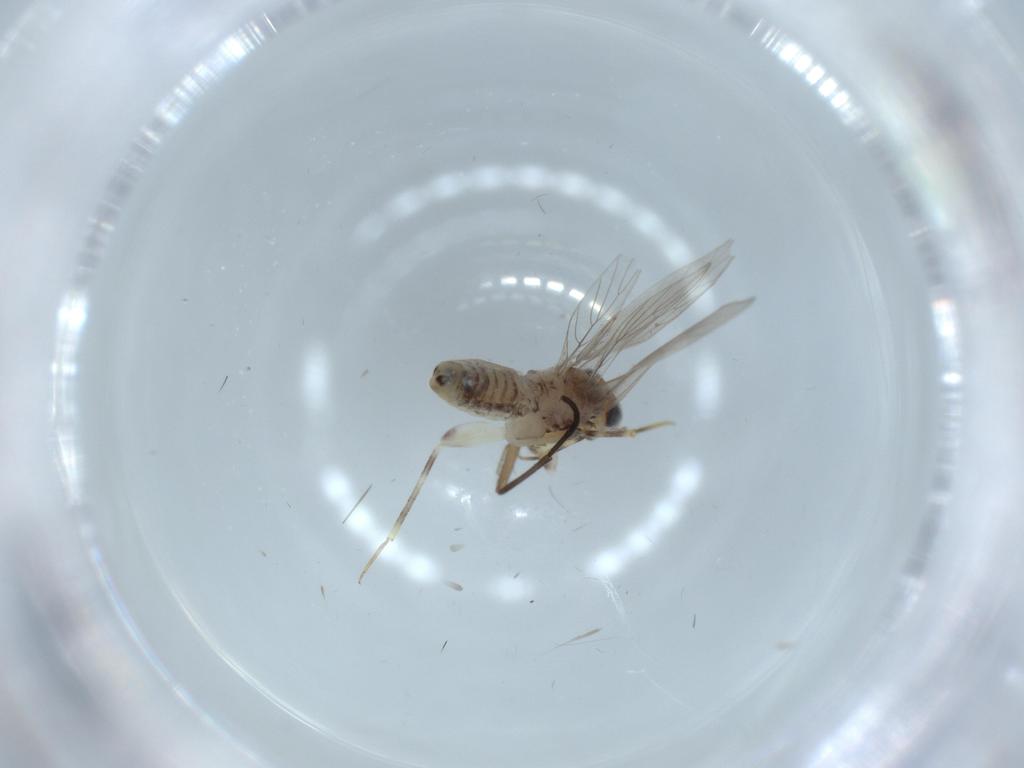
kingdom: Animalia
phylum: Arthropoda
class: Insecta
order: Psocodea
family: Lepidopsocidae
